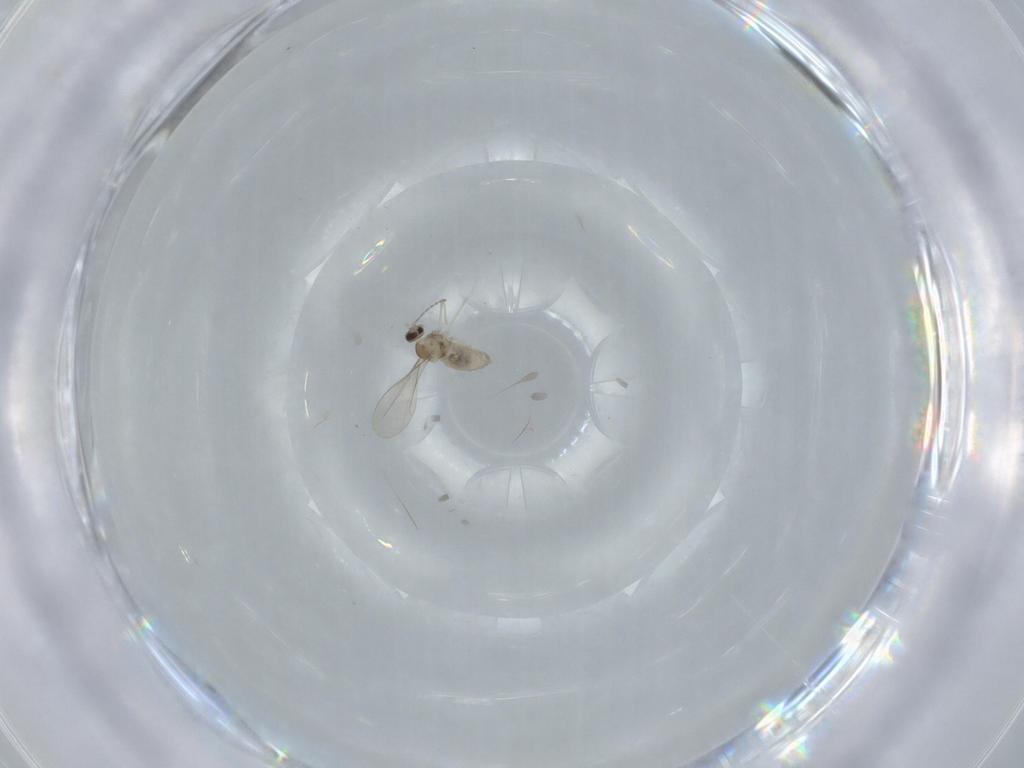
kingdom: Animalia
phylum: Arthropoda
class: Insecta
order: Diptera
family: Cecidomyiidae
